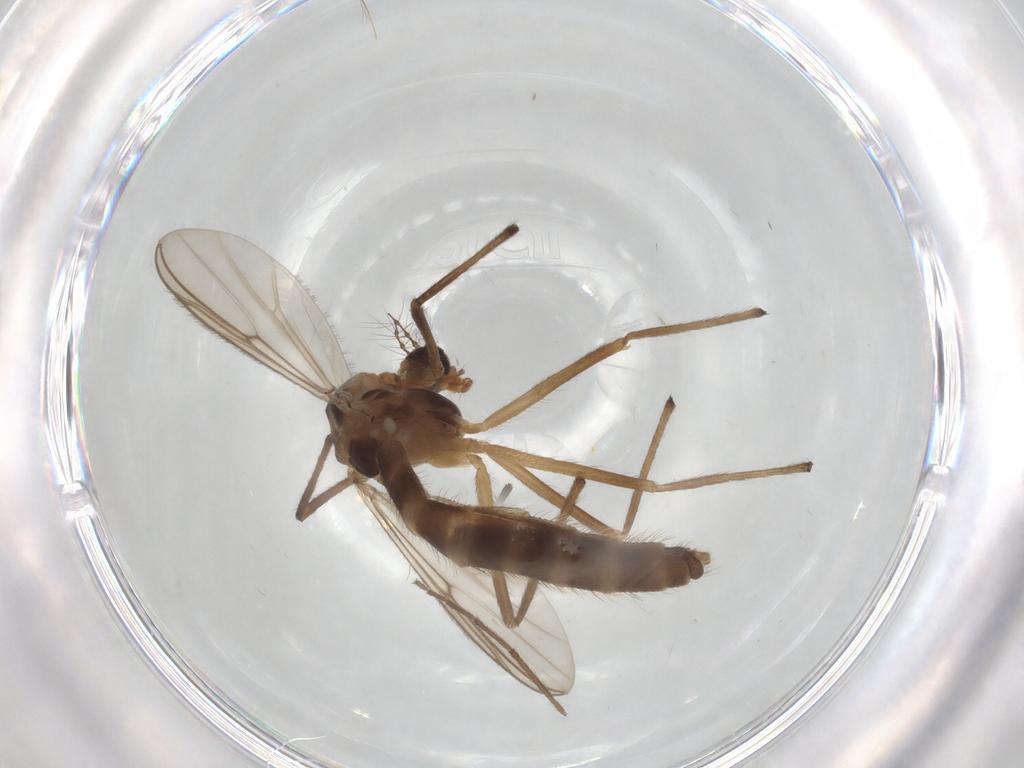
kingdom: Animalia
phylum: Arthropoda
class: Insecta
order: Diptera
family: Chironomidae
